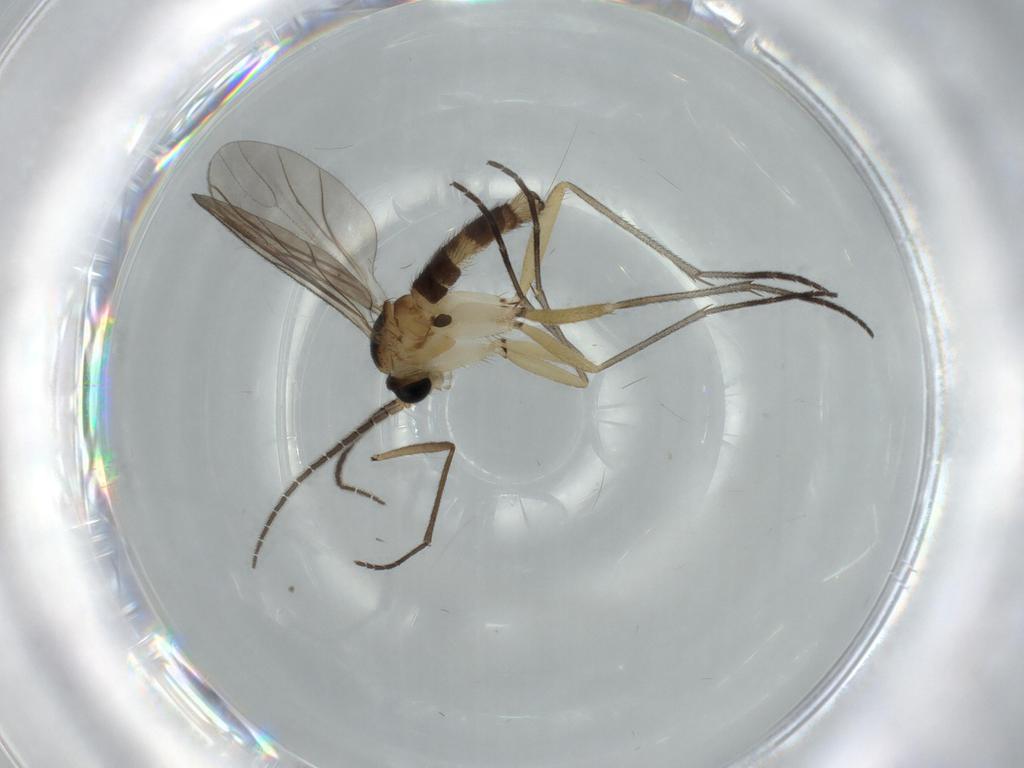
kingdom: Animalia
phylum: Arthropoda
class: Insecta
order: Diptera
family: Sciaridae
